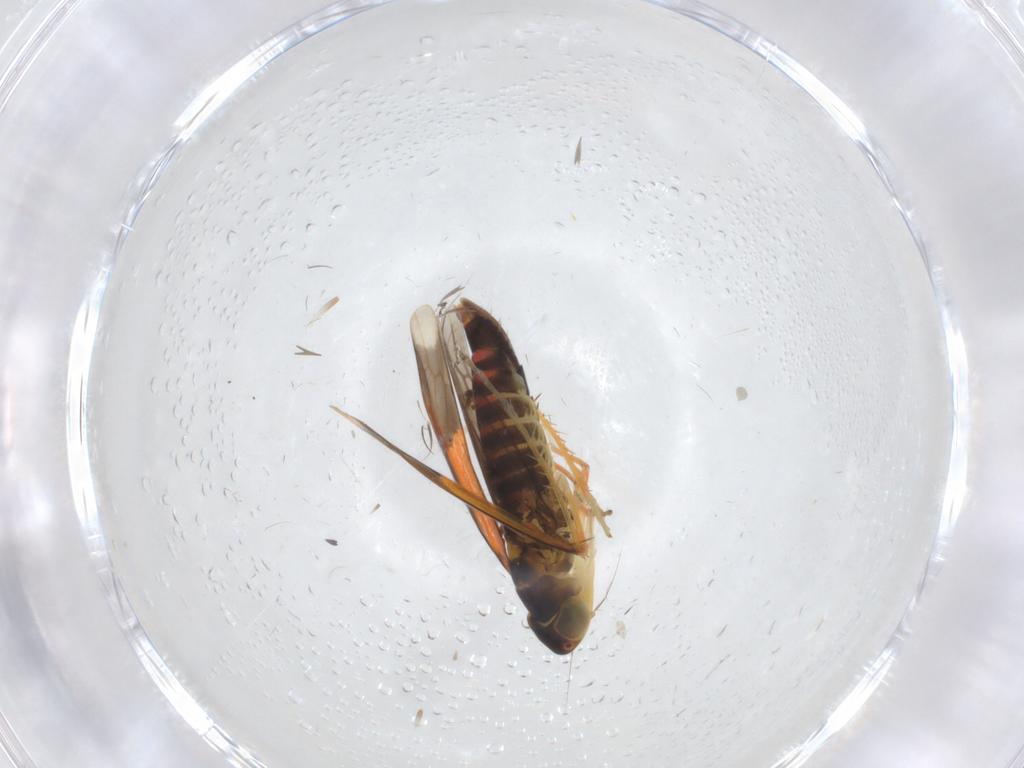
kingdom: Animalia
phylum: Arthropoda
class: Insecta
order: Hemiptera
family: Cicadellidae
